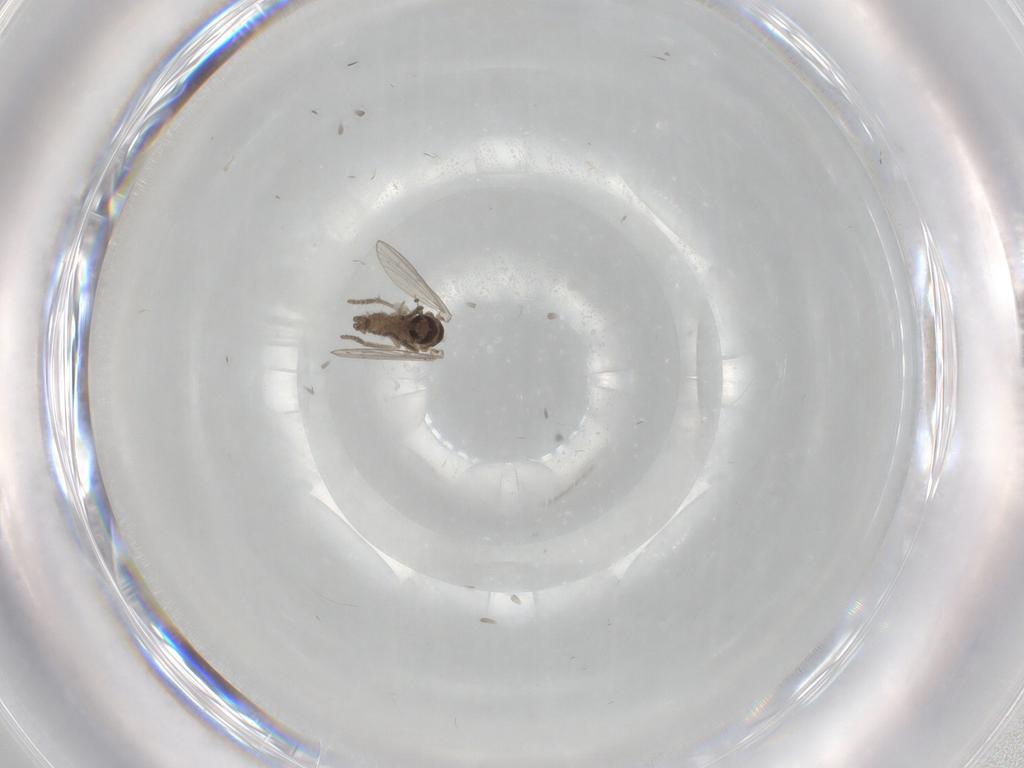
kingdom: Animalia
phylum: Arthropoda
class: Insecta
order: Diptera
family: Psychodidae
